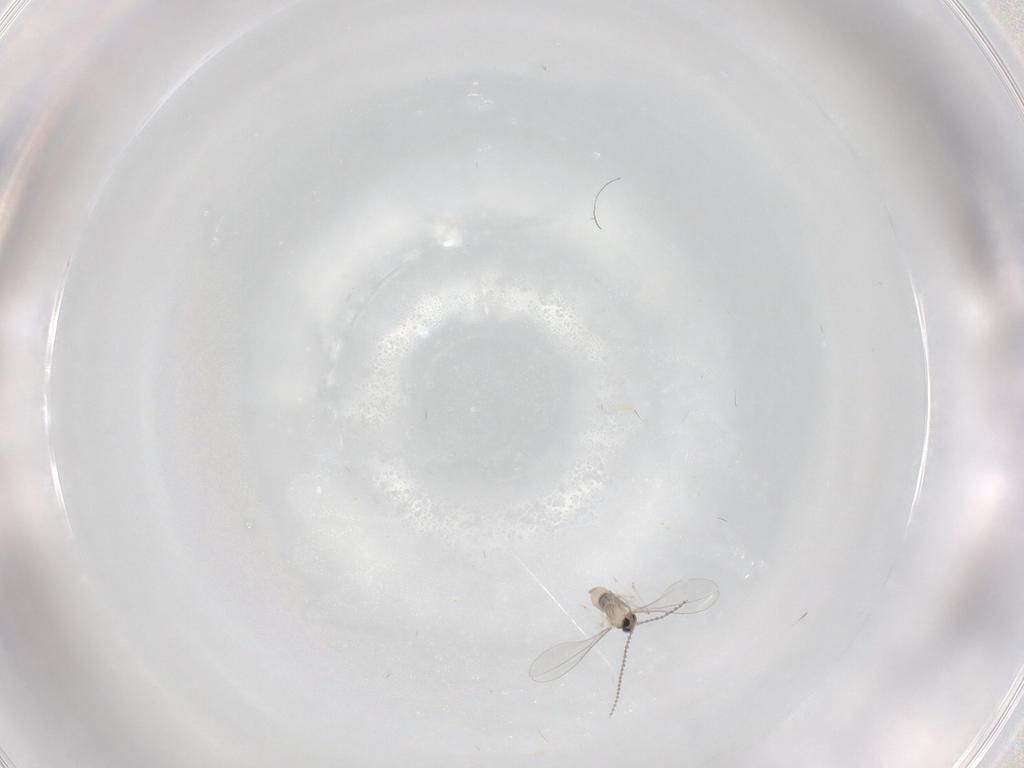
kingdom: Animalia
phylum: Arthropoda
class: Insecta
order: Diptera
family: Cecidomyiidae
